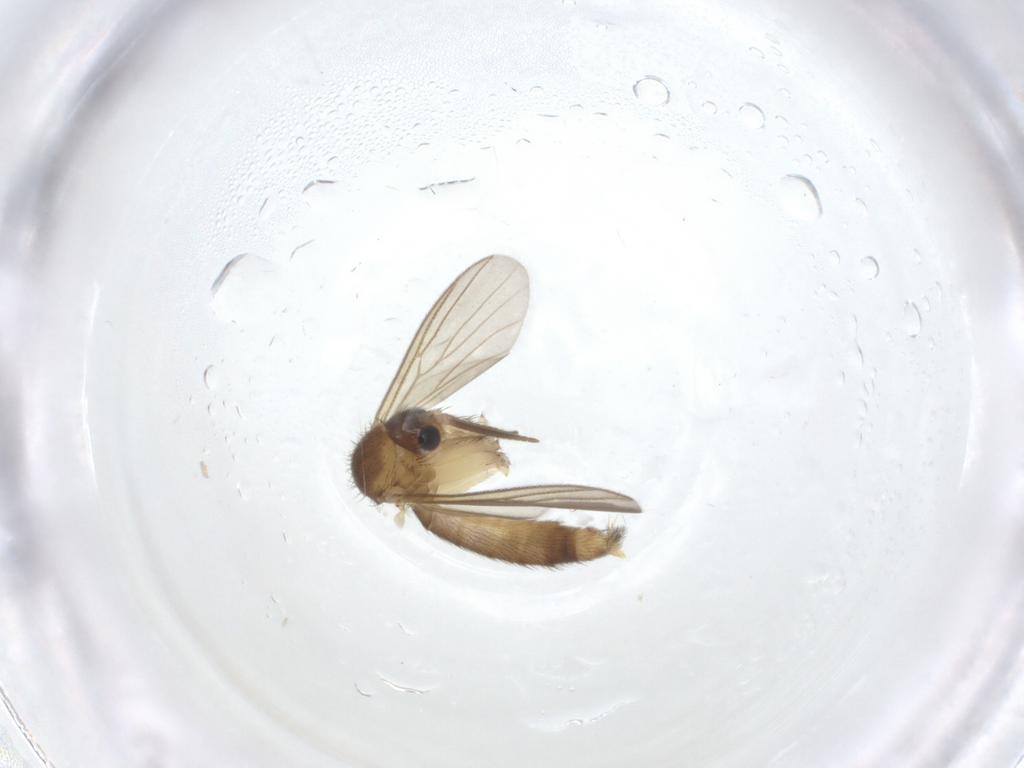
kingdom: Animalia
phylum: Arthropoda
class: Insecta
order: Diptera
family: Mycetophilidae
